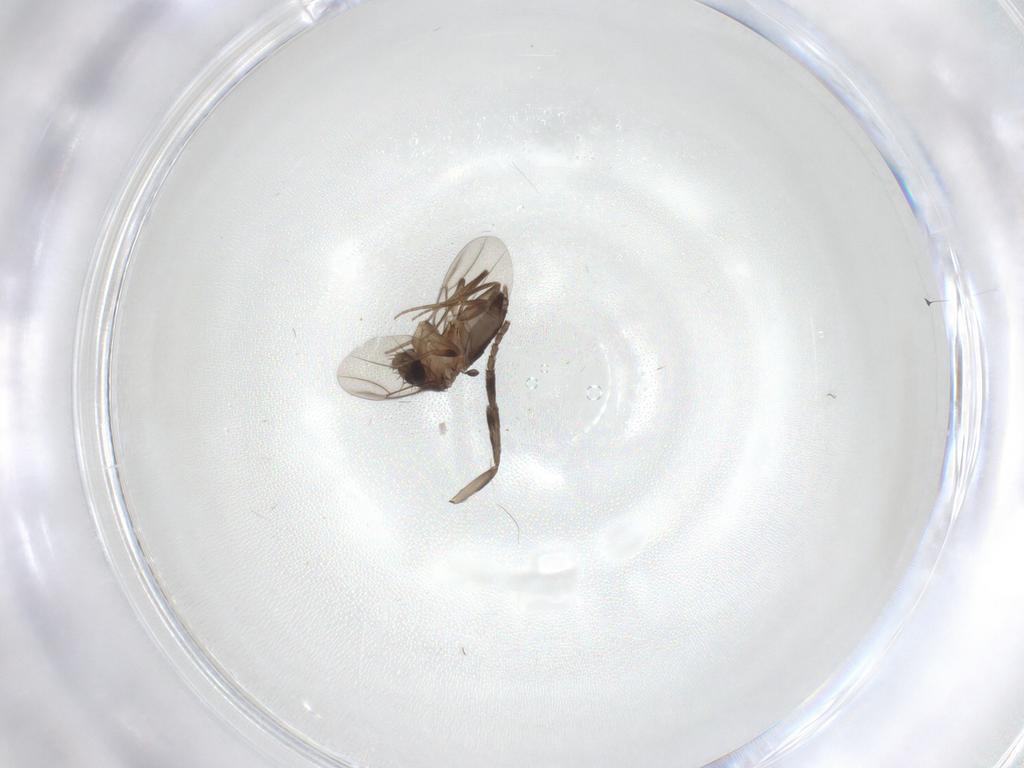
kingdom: Animalia
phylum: Arthropoda
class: Insecta
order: Diptera
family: Phoridae
